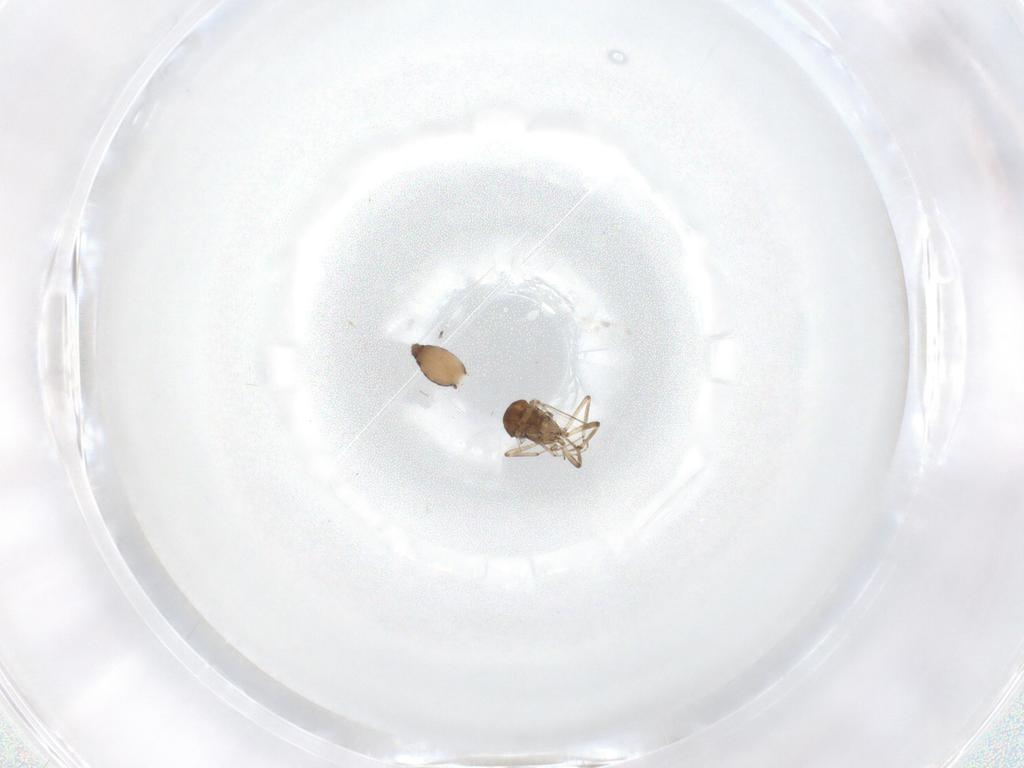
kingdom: Animalia
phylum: Arthropoda
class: Insecta
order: Diptera
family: Ceratopogonidae
